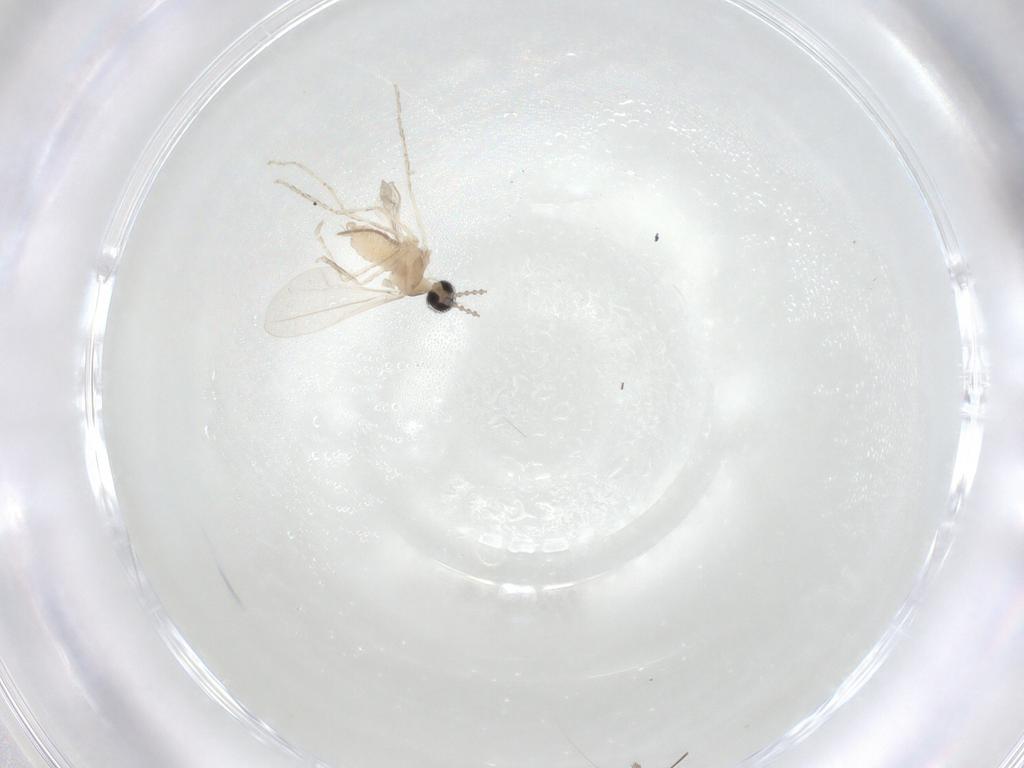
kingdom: Animalia
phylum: Arthropoda
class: Insecta
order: Diptera
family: Cecidomyiidae
